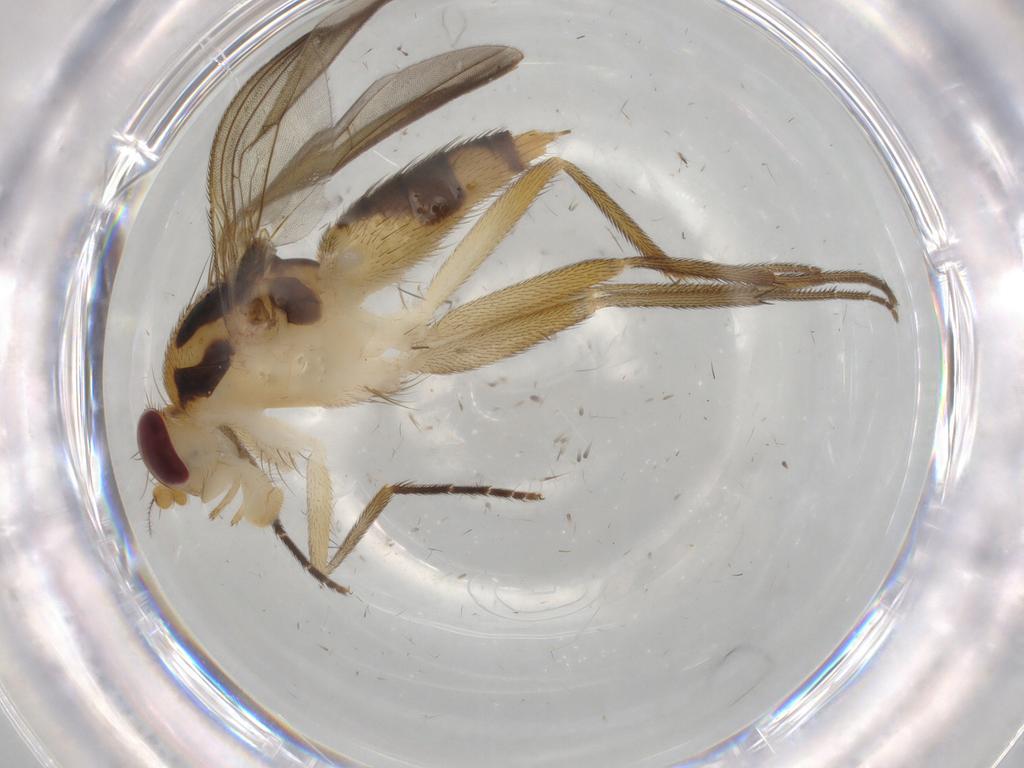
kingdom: Animalia
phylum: Arthropoda
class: Insecta
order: Diptera
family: Clusiidae
